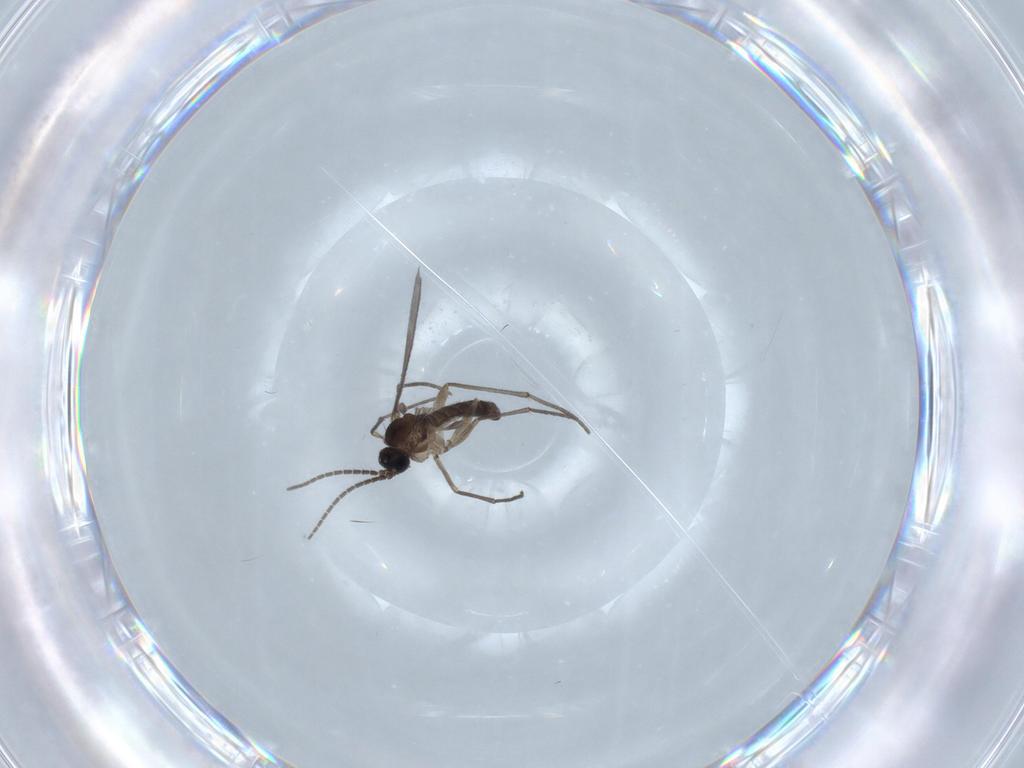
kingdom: Animalia
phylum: Arthropoda
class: Insecta
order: Diptera
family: Sciaridae
